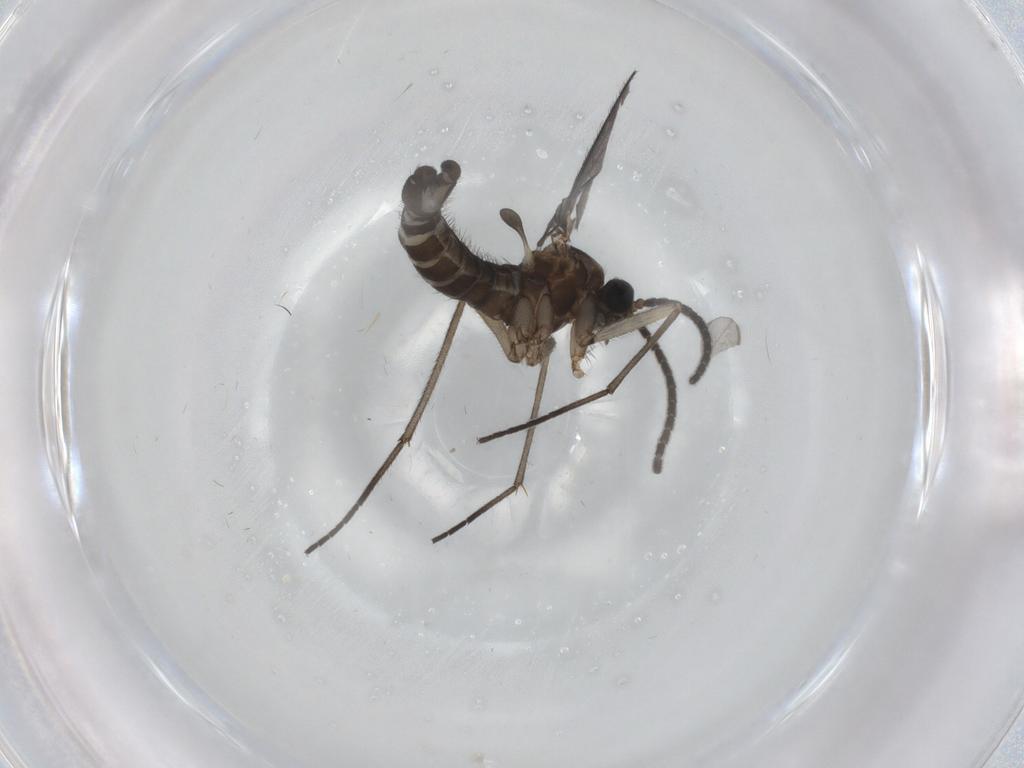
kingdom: Animalia
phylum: Arthropoda
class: Insecta
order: Diptera
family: Sciaridae
